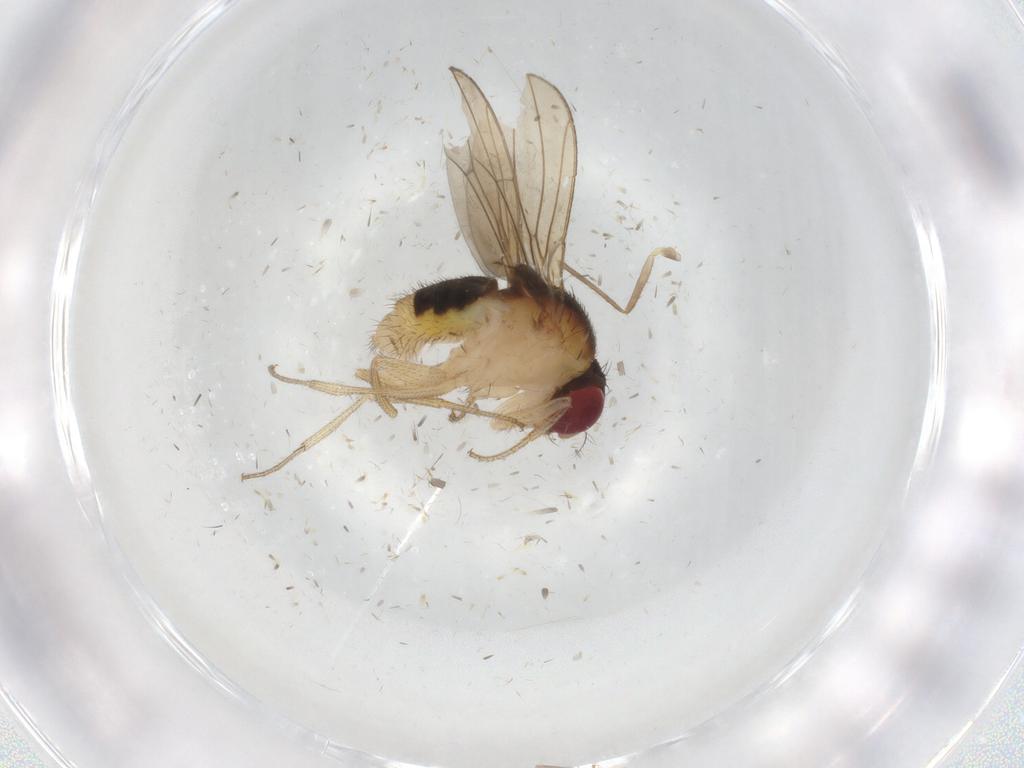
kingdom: Animalia
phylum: Arthropoda
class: Insecta
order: Diptera
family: Drosophilidae
